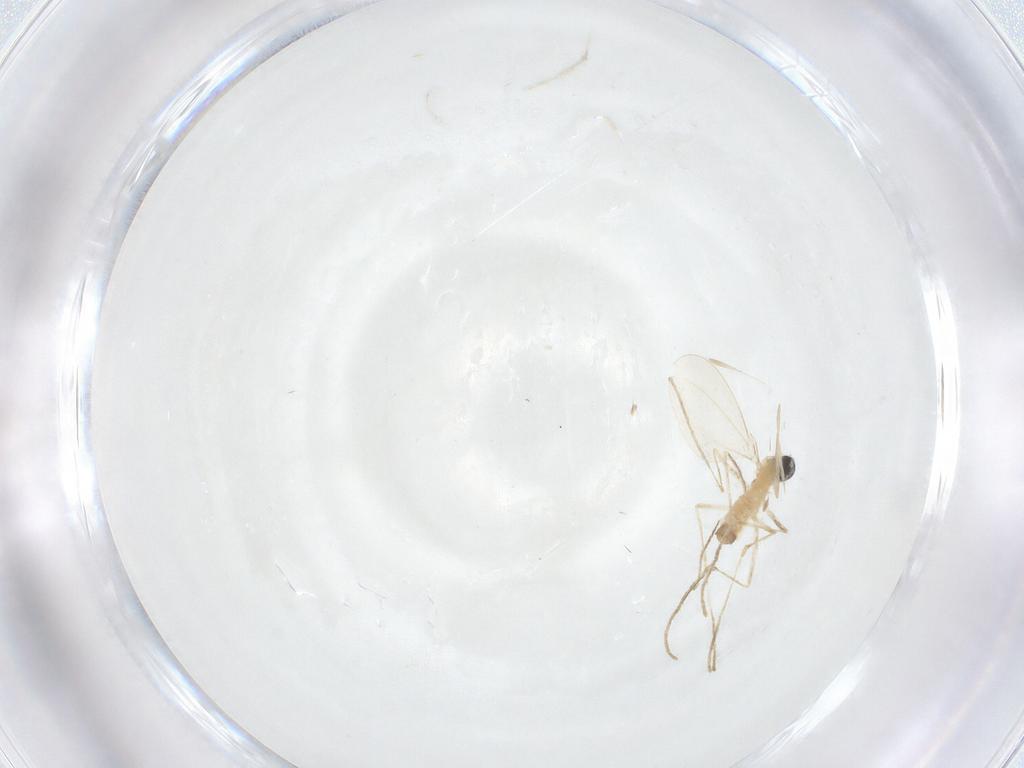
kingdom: Animalia
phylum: Arthropoda
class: Insecta
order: Diptera
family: Cecidomyiidae
